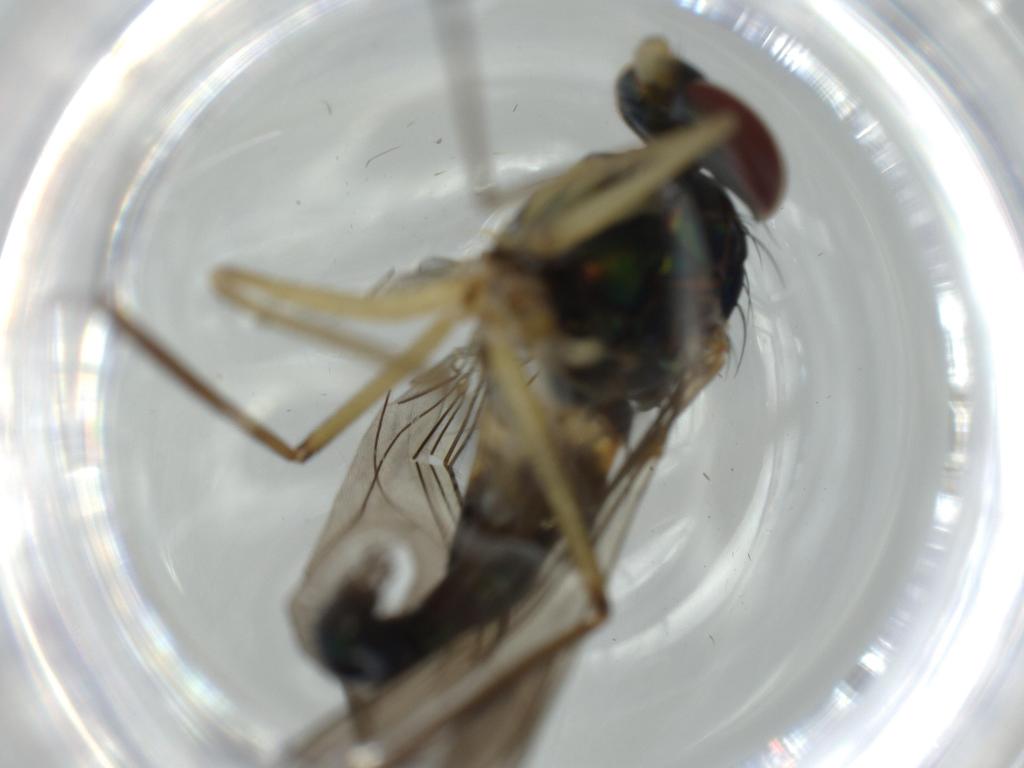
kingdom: Animalia
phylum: Arthropoda
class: Insecta
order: Diptera
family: Dolichopodidae
